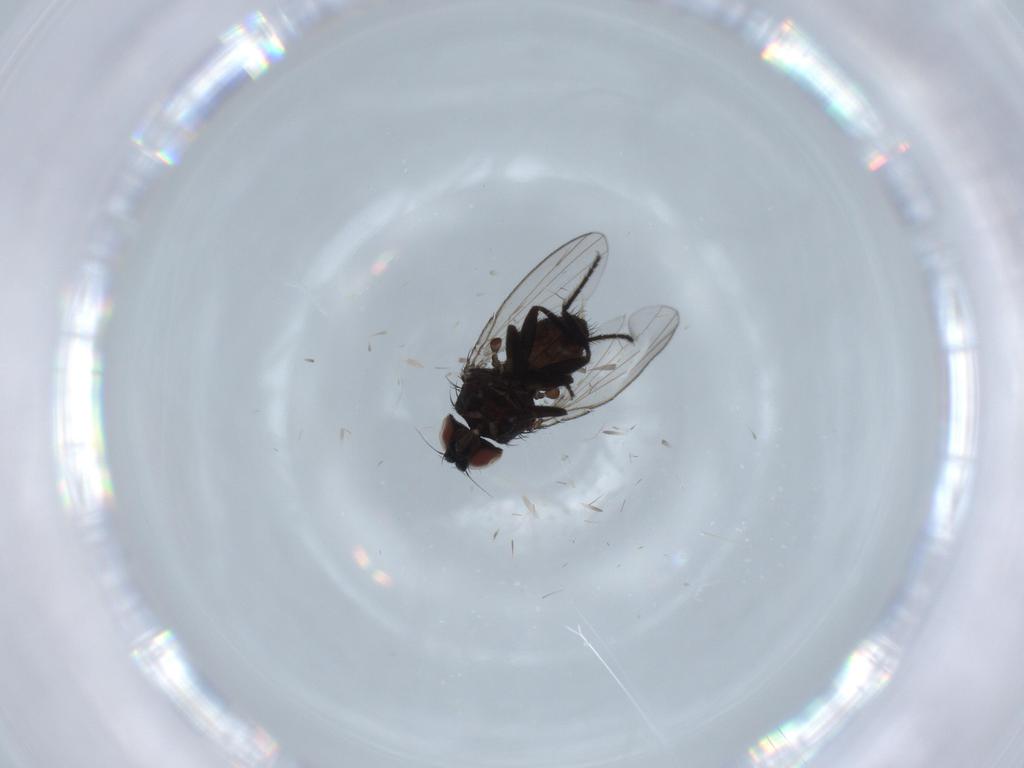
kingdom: Animalia
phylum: Arthropoda
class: Insecta
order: Diptera
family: Milichiidae
